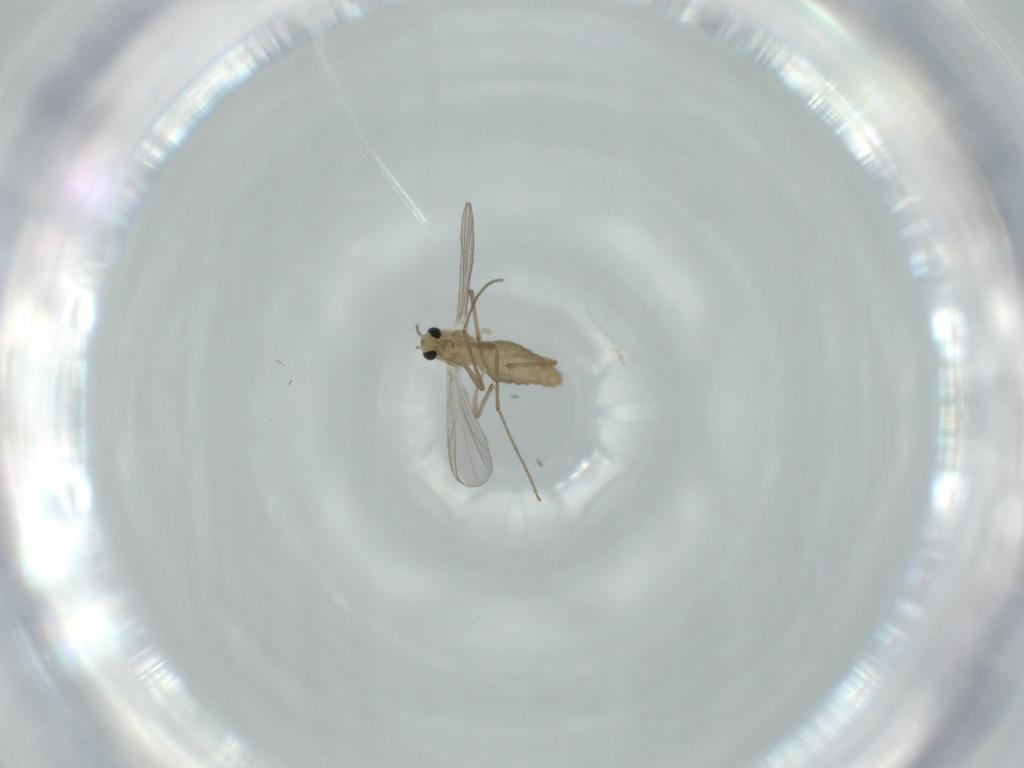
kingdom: Animalia
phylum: Arthropoda
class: Insecta
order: Diptera
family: Chironomidae
